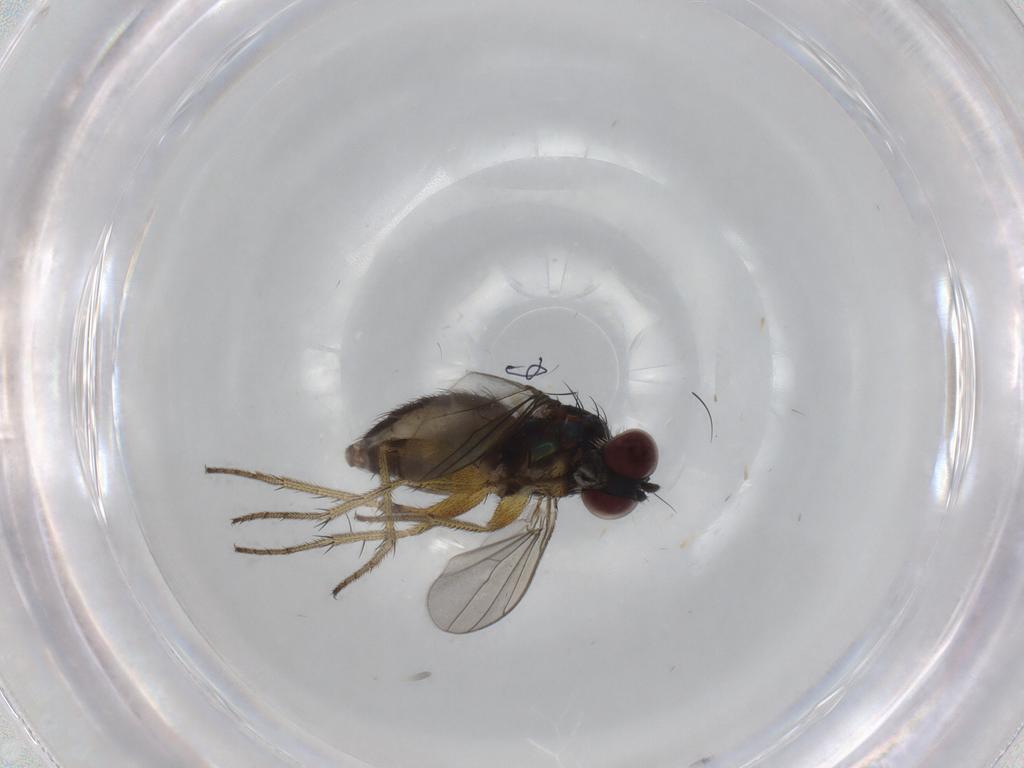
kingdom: Animalia
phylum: Arthropoda
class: Insecta
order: Diptera
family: Dolichopodidae
